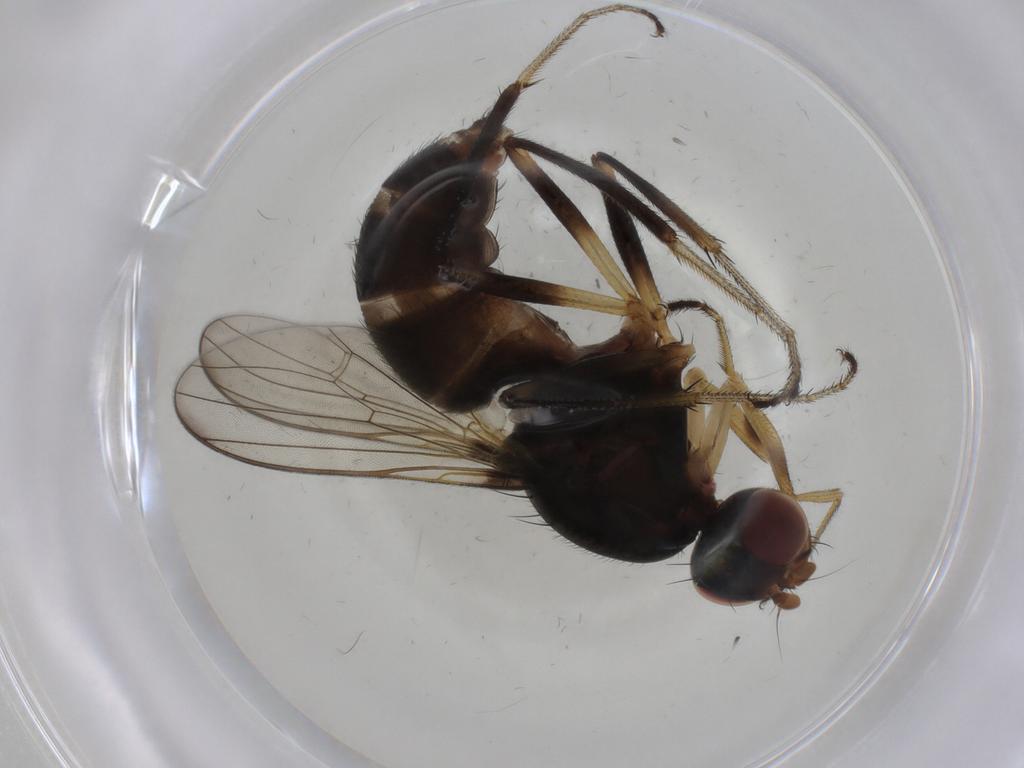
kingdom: Animalia
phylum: Arthropoda
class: Insecta
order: Diptera
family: Sepsidae
